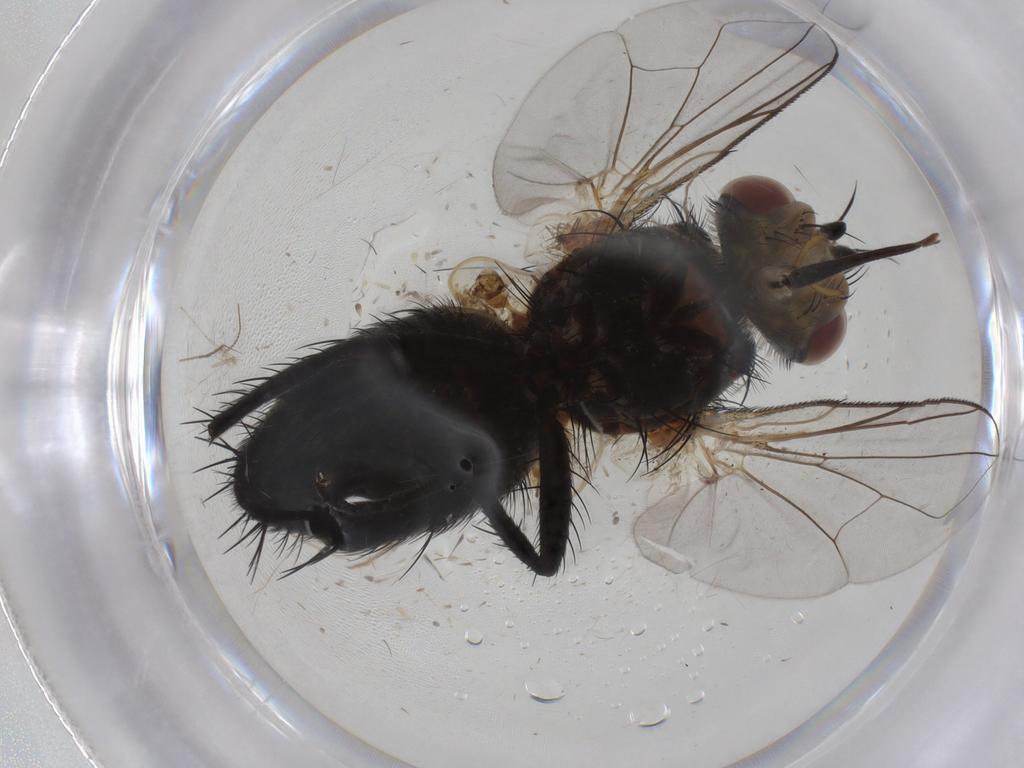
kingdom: Animalia
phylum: Arthropoda
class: Insecta
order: Diptera
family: Tachinidae
